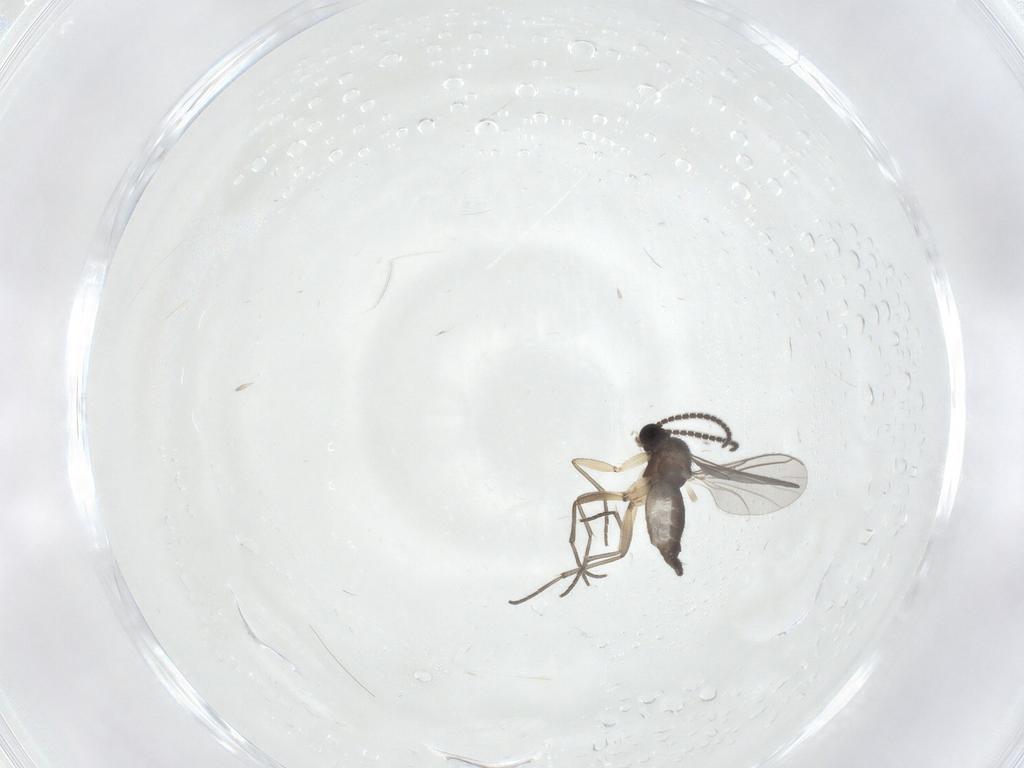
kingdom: Animalia
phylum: Arthropoda
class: Insecta
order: Diptera
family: Sciaridae
